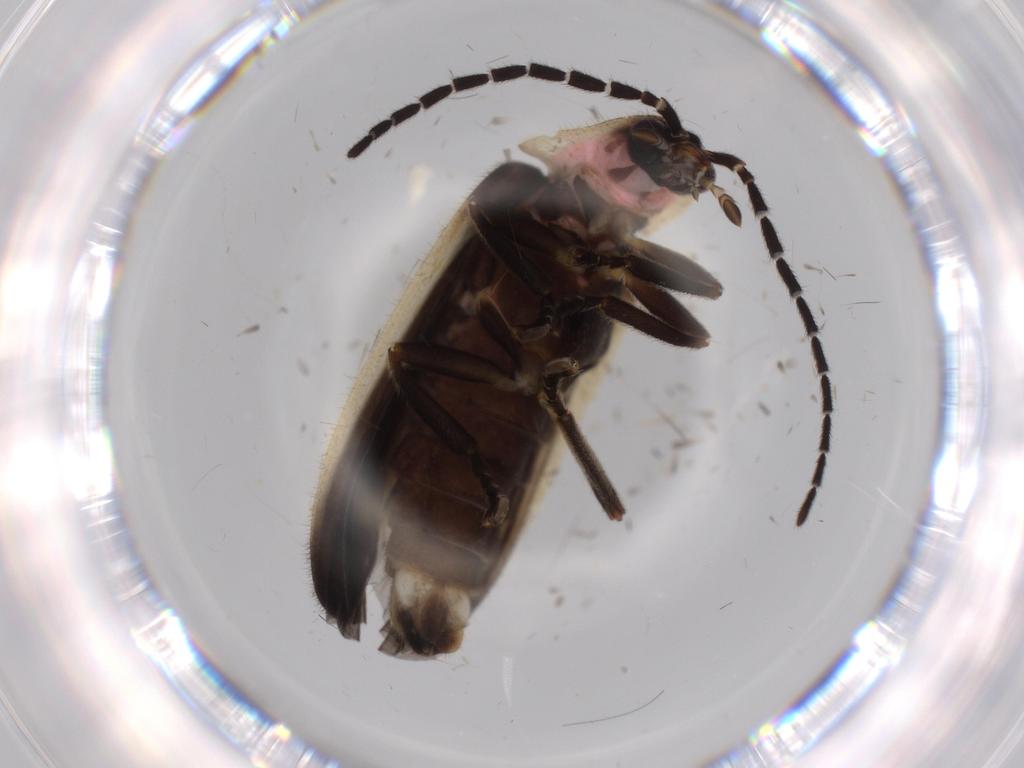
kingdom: Animalia
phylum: Arthropoda
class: Insecta
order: Coleoptera
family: Lampyridae
